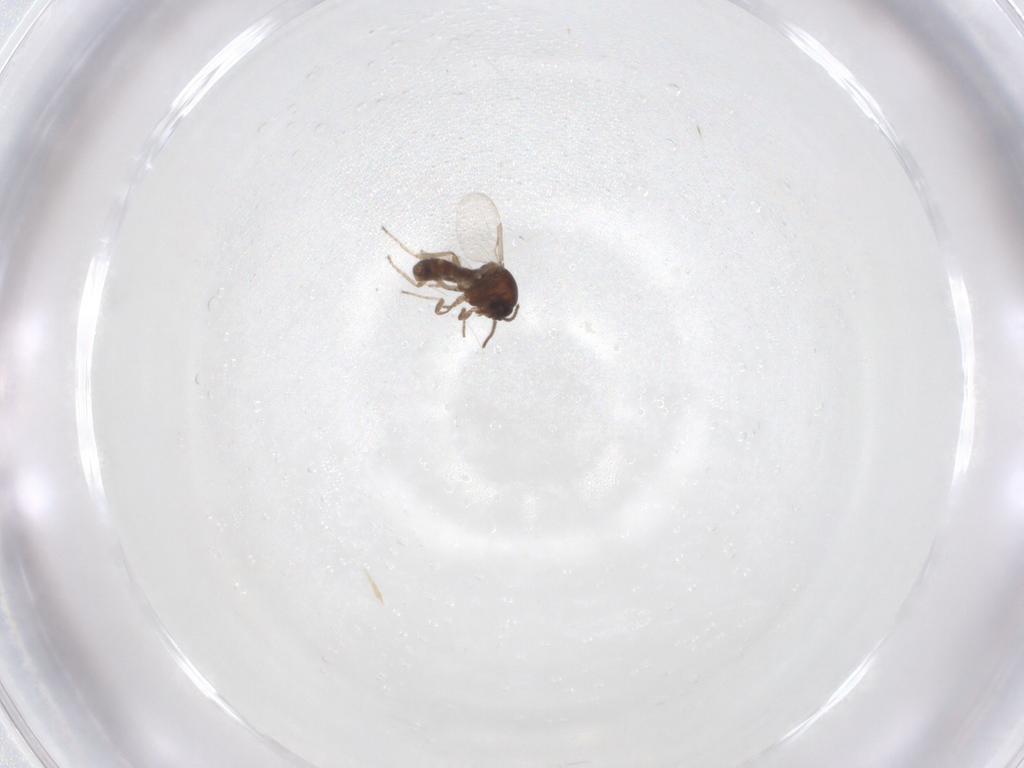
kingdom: Animalia
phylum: Arthropoda
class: Insecta
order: Diptera
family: Ceratopogonidae
